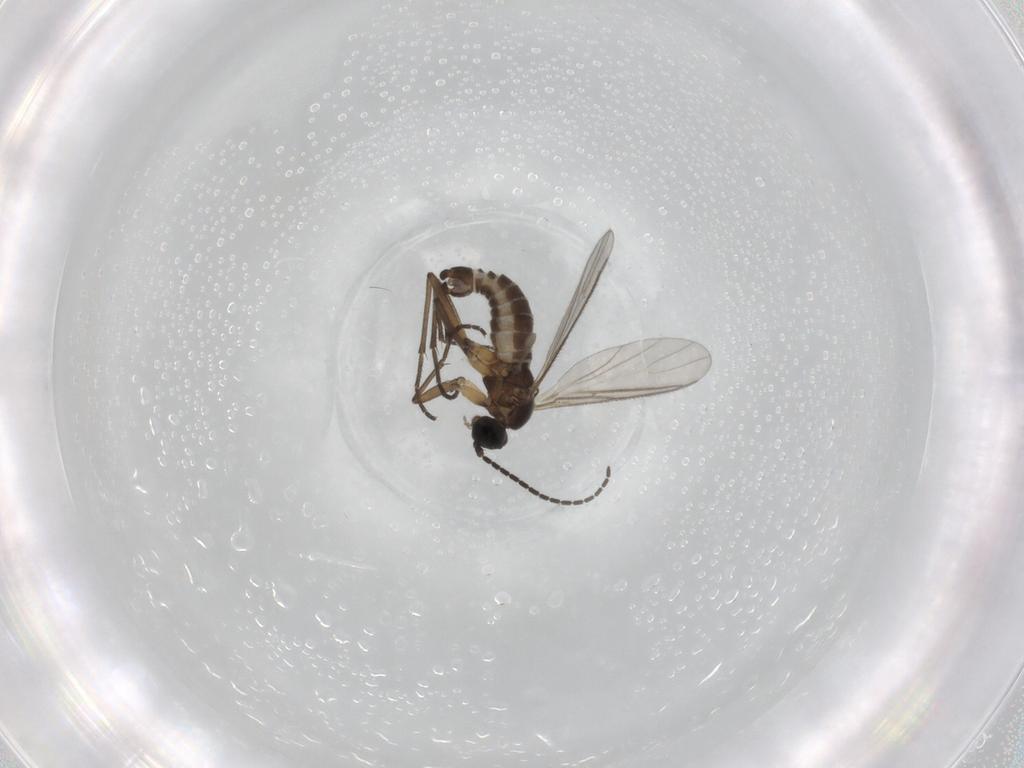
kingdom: Animalia
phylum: Arthropoda
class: Insecta
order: Diptera
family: Sciaridae
